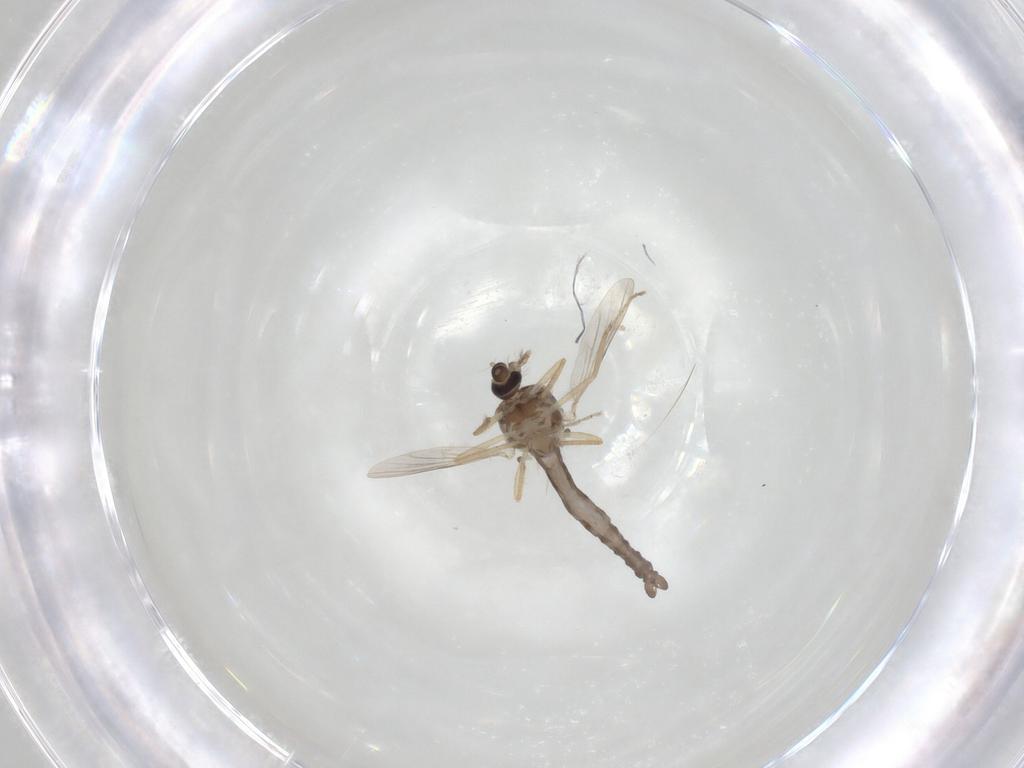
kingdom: Animalia
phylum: Arthropoda
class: Insecta
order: Diptera
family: Ceratopogonidae
